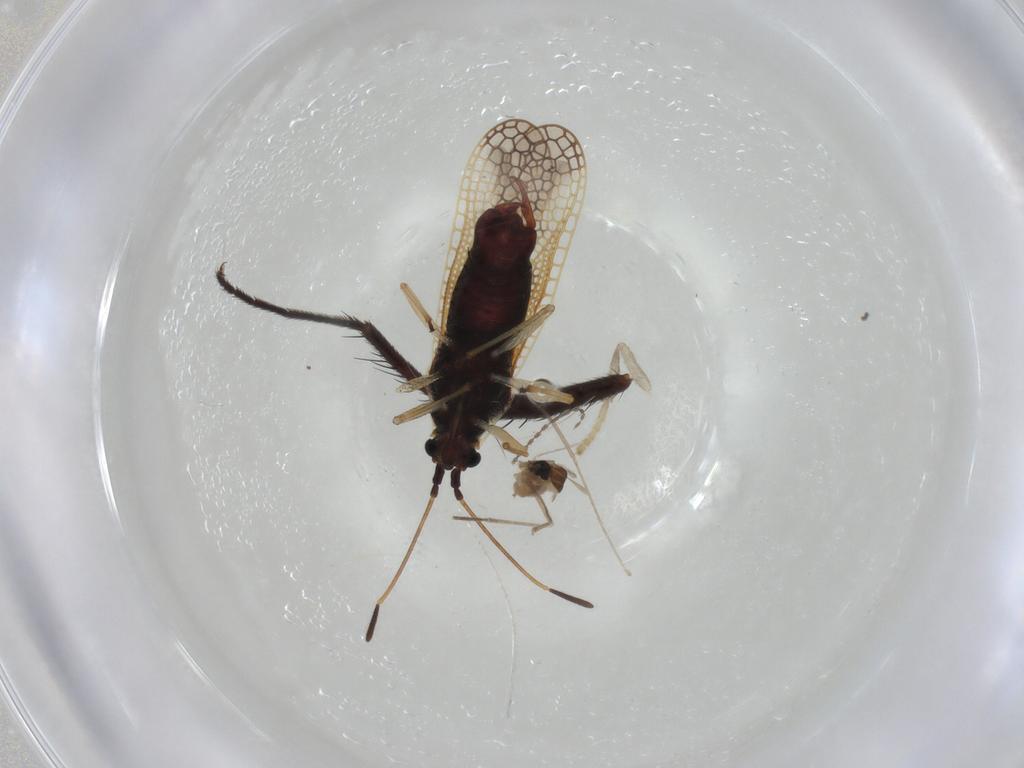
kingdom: Animalia
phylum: Arthropoda
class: Insecta
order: Diptera
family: Cecidomyiidae
